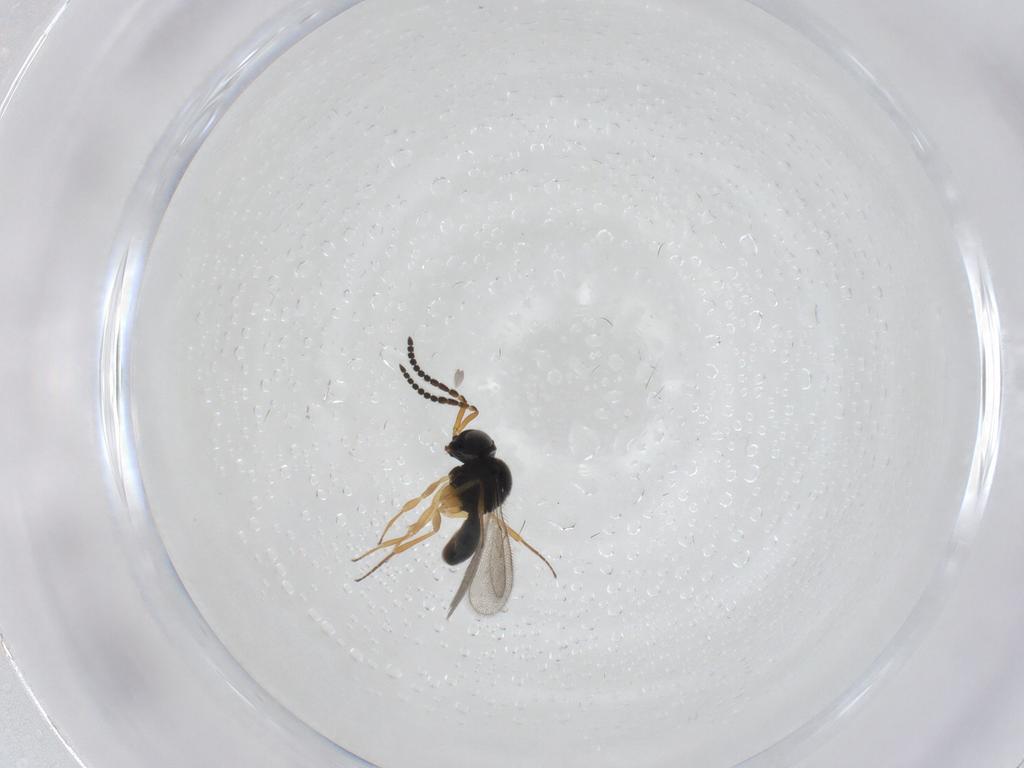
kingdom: Animalia
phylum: Arthropoda
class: Insecta
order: Hymenoptera
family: Scelionidae
